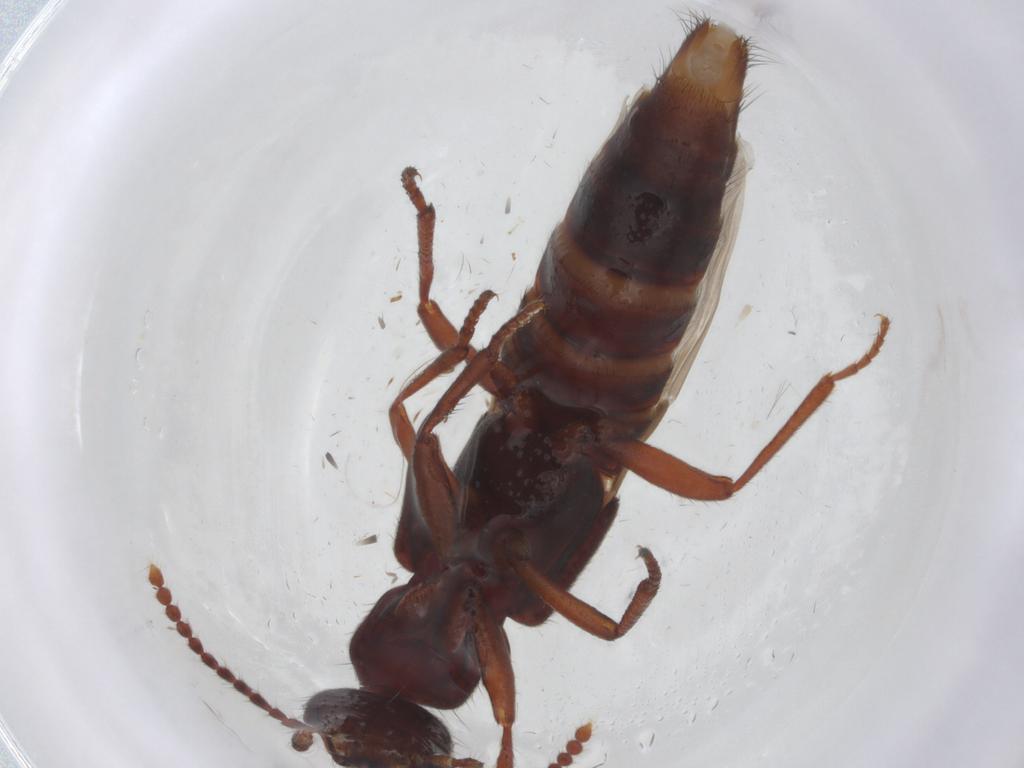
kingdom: Animalia
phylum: Arthropoda
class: Insecta
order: Coleoptera
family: Staphylinidae
